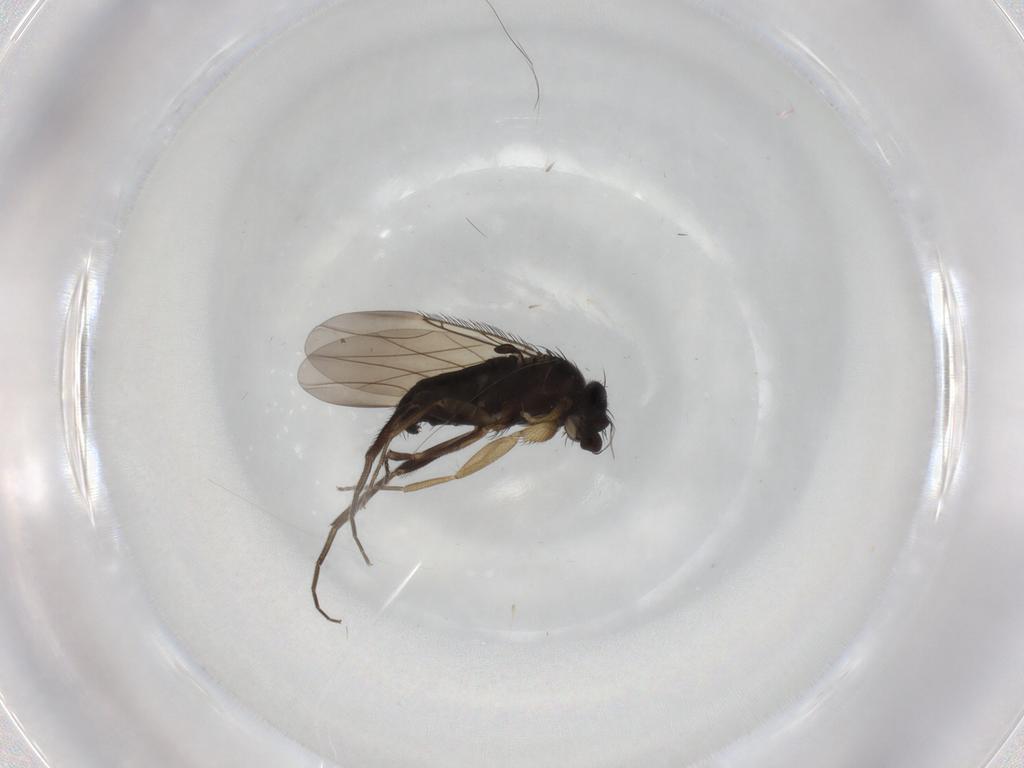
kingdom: Animalia
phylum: Arthropoda
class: Insecta
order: Diptera
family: Phoridae
